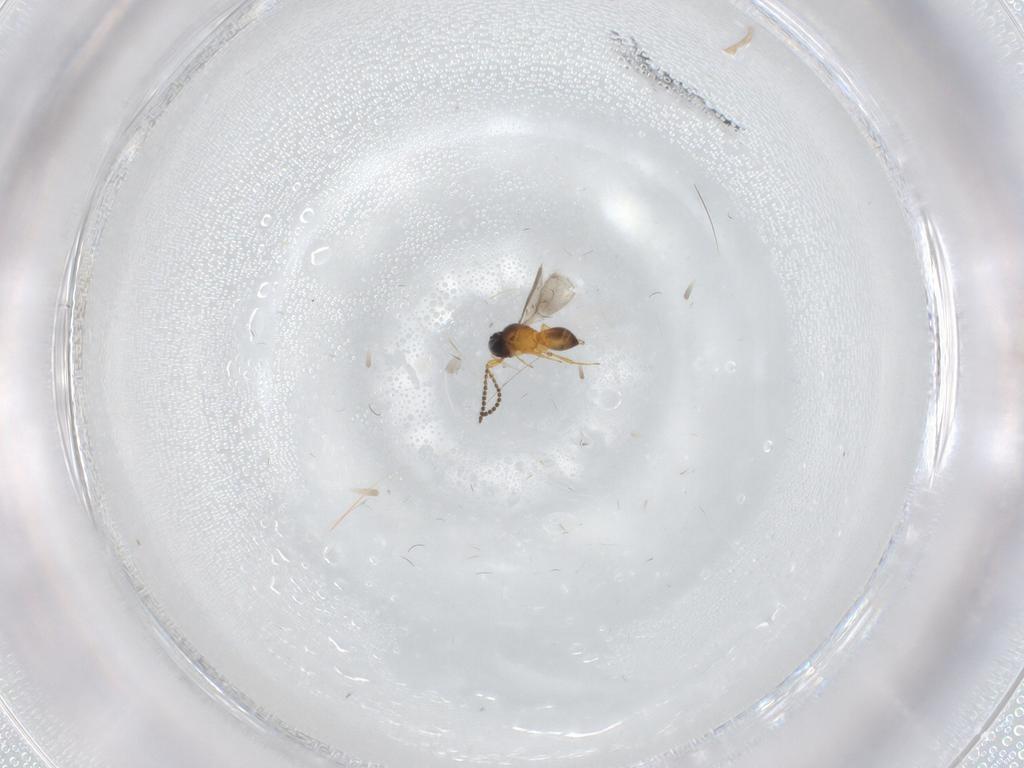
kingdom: Animalia
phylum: Arthropoda
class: Insecta
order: Hymenoptera
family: Scelionidae
